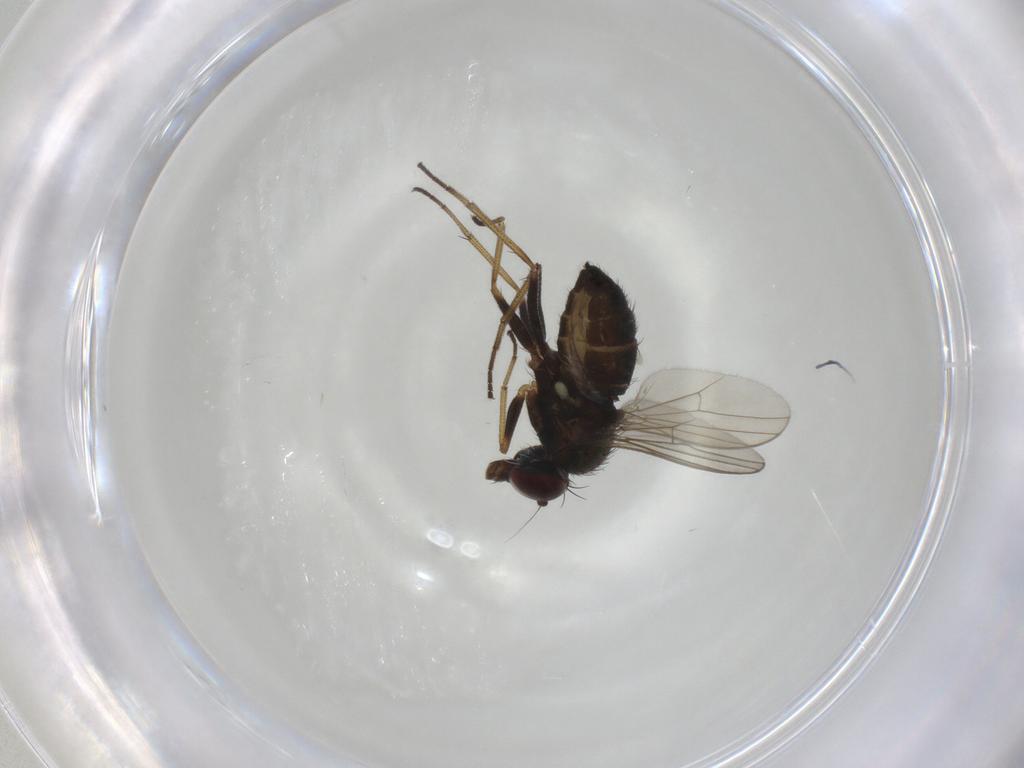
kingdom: Animalia
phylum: Arthropoda
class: Insecta
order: Diptera
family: Dolichopodidae
